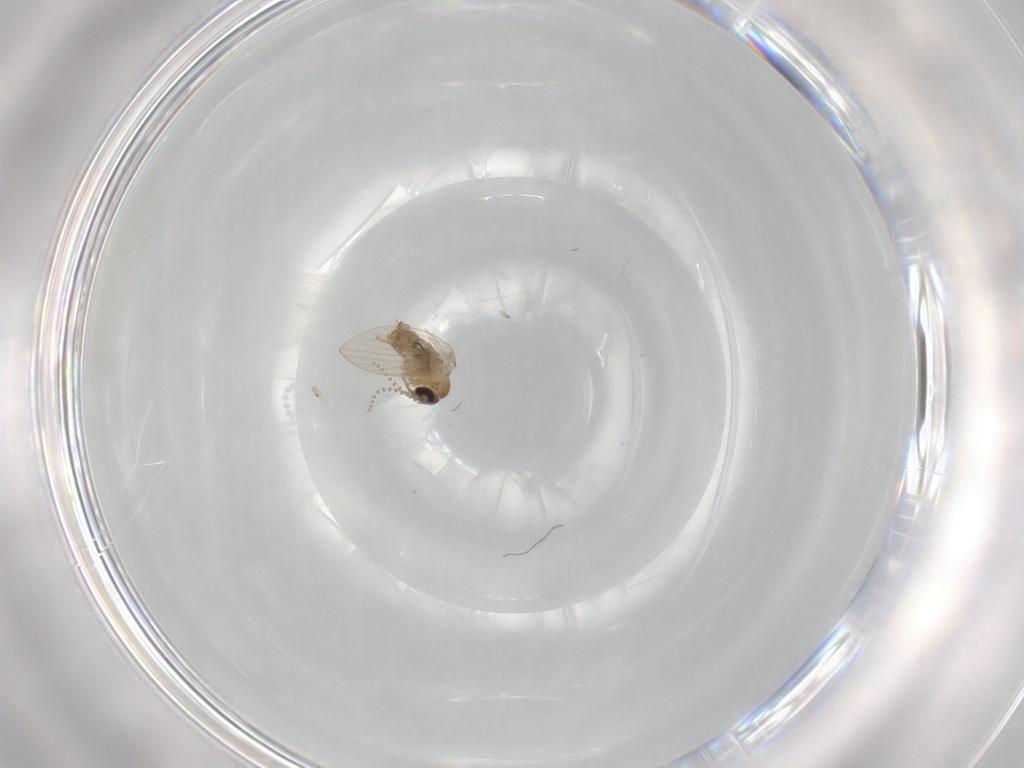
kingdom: Animalia
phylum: Arthropoda
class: Insecta
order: Diptera
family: Psychodidae
